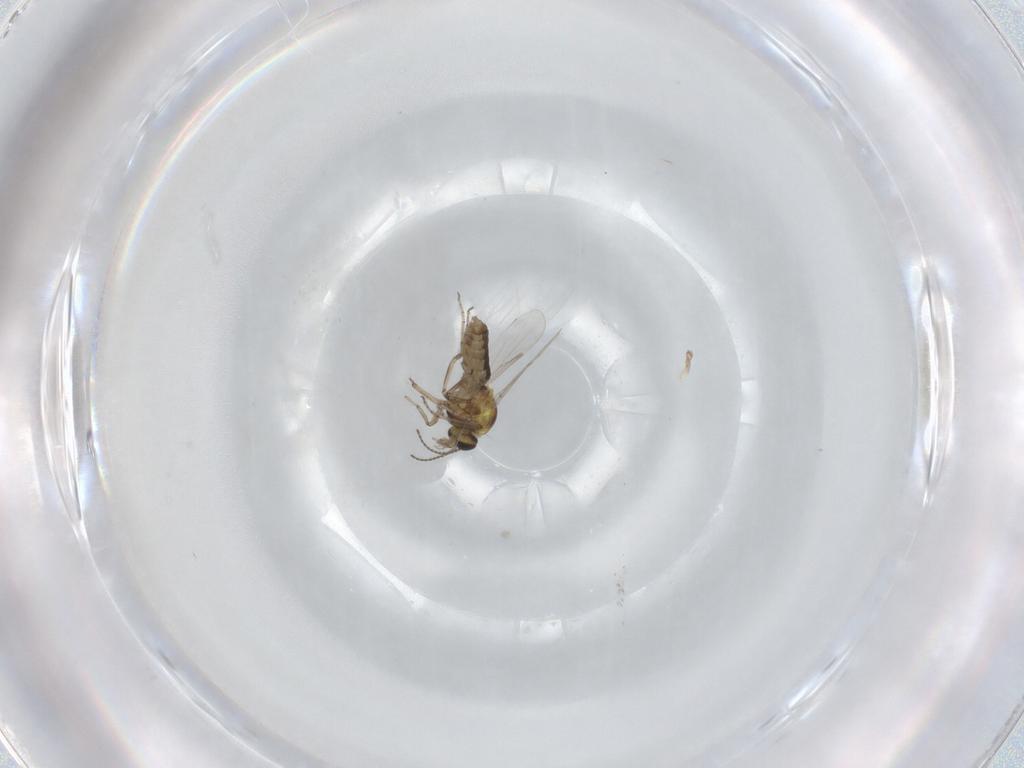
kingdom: Animalia
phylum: Arthropoda
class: Insecta
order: Diptera
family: Ceratopogonidae
